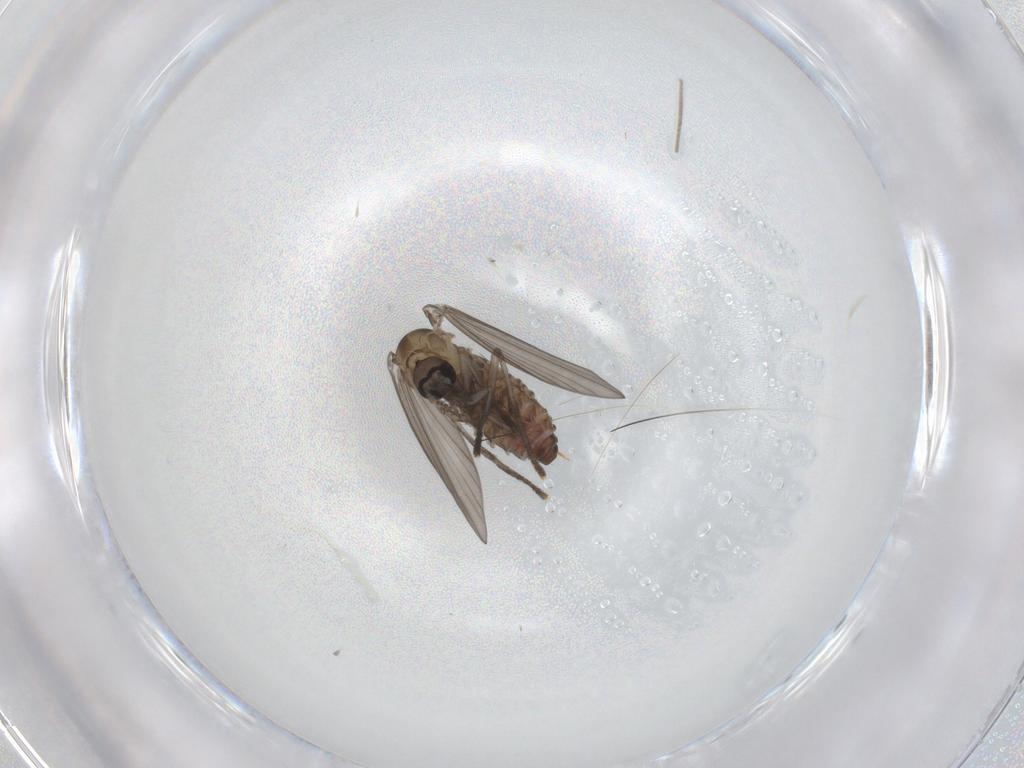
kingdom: Animalia
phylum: Arthropoda
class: Insecta
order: Diptera
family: Psychodidae
